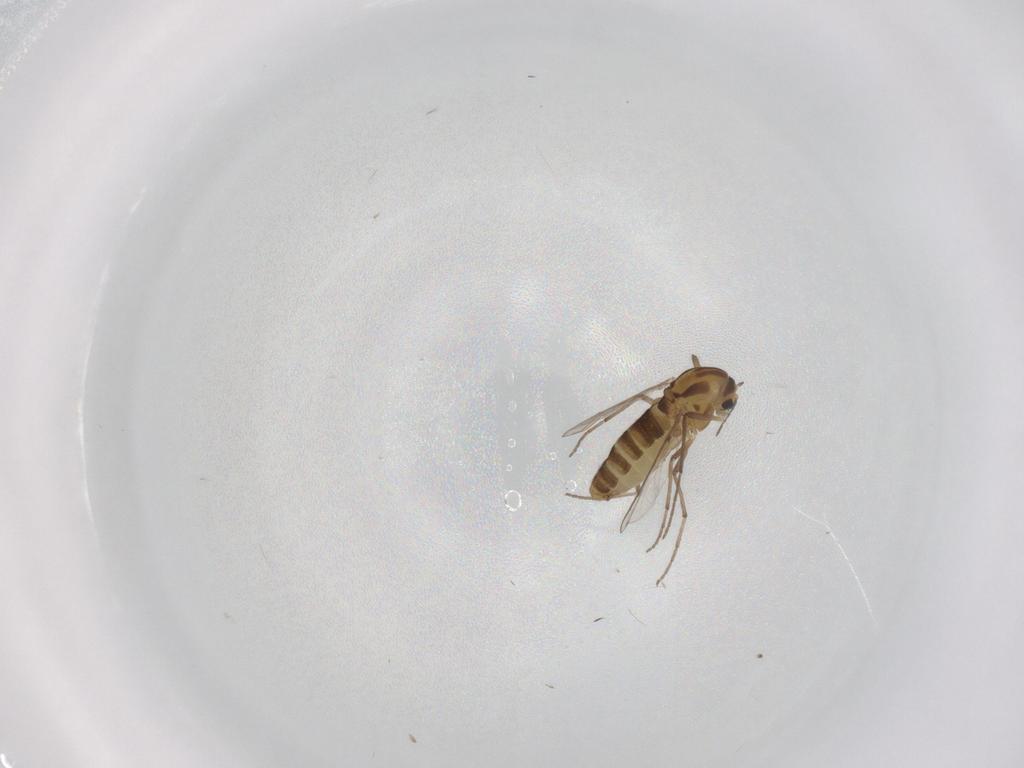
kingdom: Animalia
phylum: Arthropoda
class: Insecta
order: Diptera
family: Chironomidae
